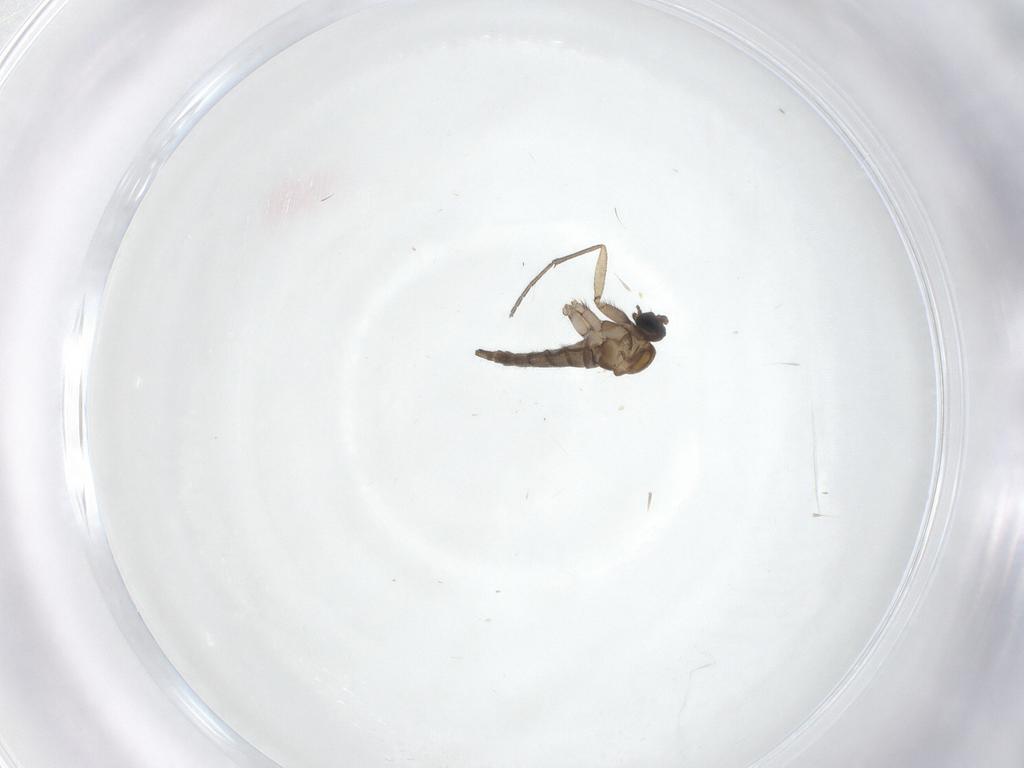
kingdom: Animalia
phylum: Arthropoda
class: Insecta
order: Diptera
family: Sciaridae
